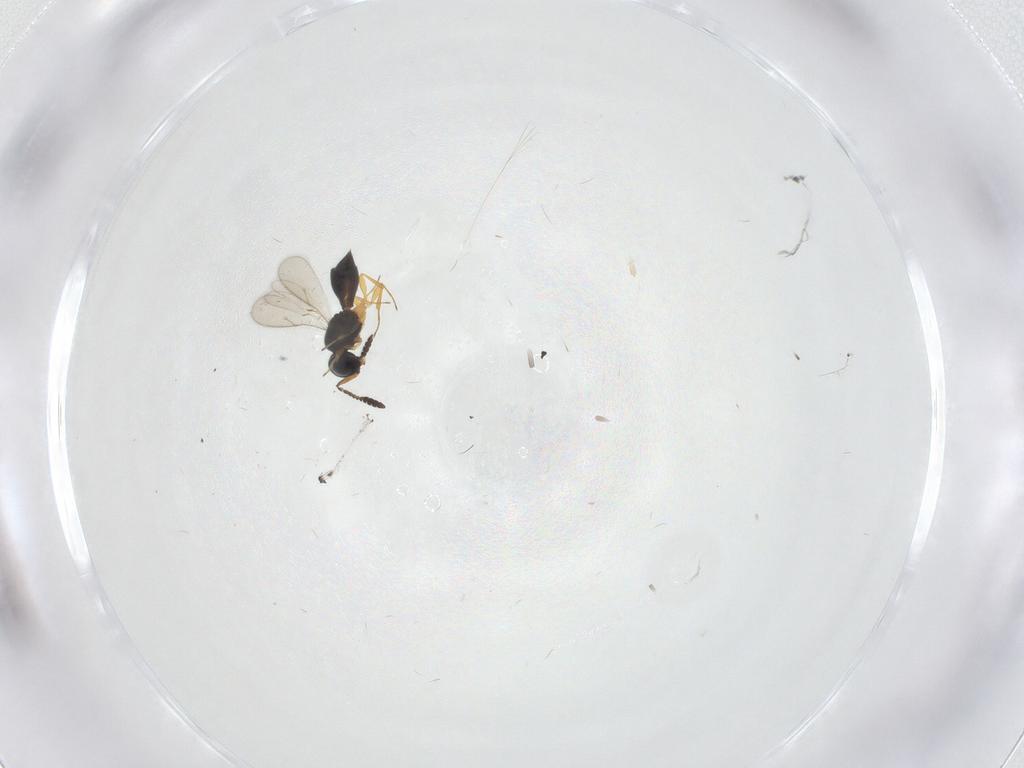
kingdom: Animalia
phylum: Arthropoda
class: Insecta
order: Hymenoptera
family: Scelionidae
